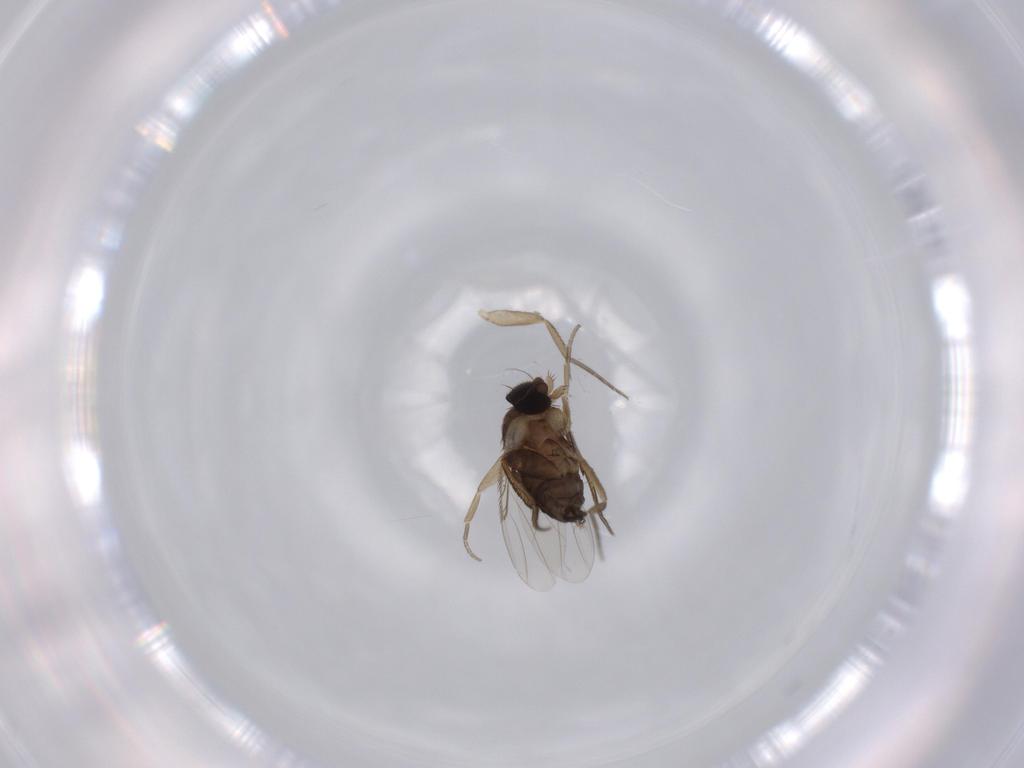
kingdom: Animalia
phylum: Arthropoda
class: Insecta
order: Diptera
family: Phoridae
